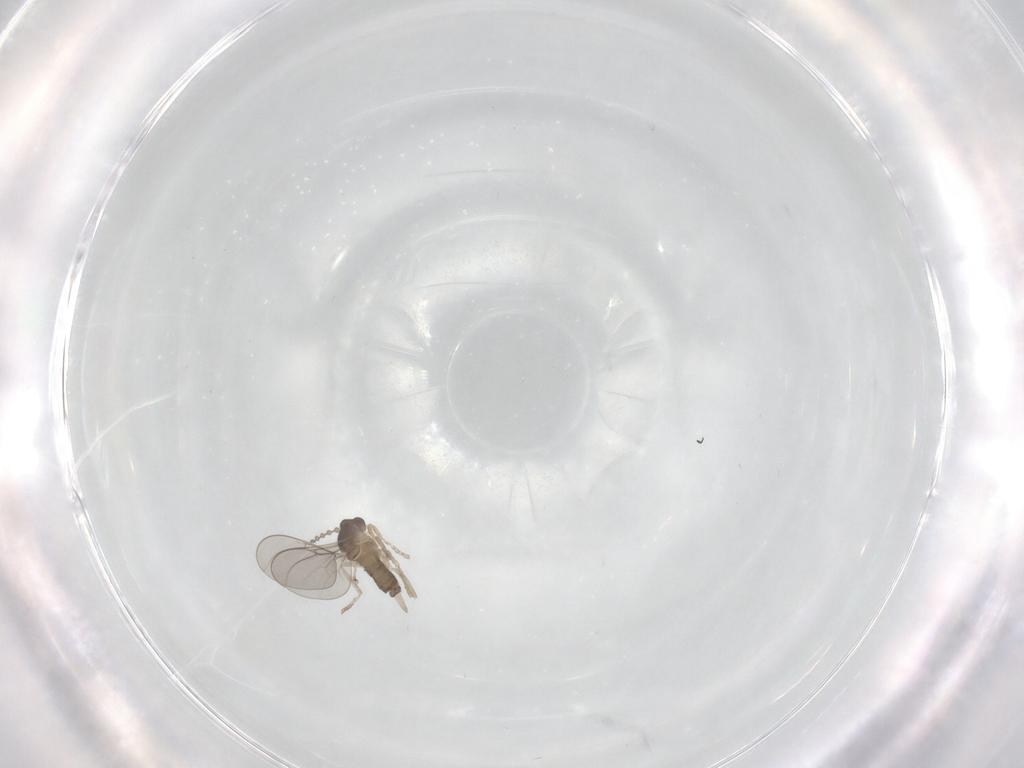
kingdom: Animalia
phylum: Arthropoda
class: Insecta
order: Diptera
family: Cecidomyiidae
